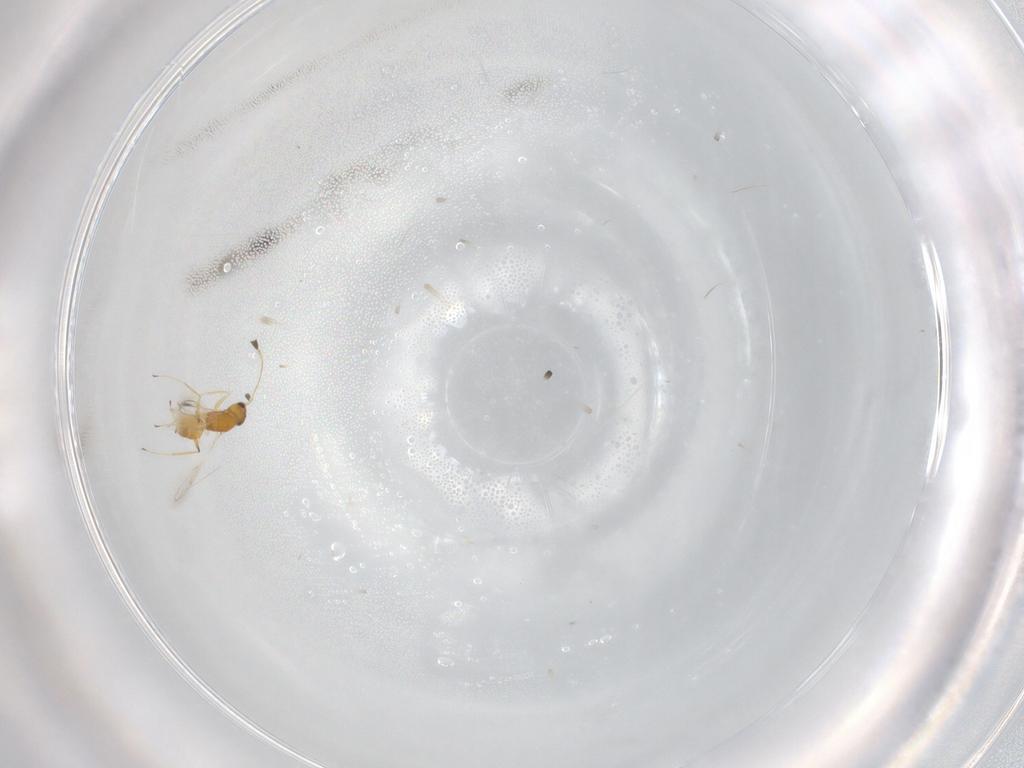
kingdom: Animalia
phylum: Arthropoda
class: Insecta
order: Hymenoptera
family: Mymaridae
